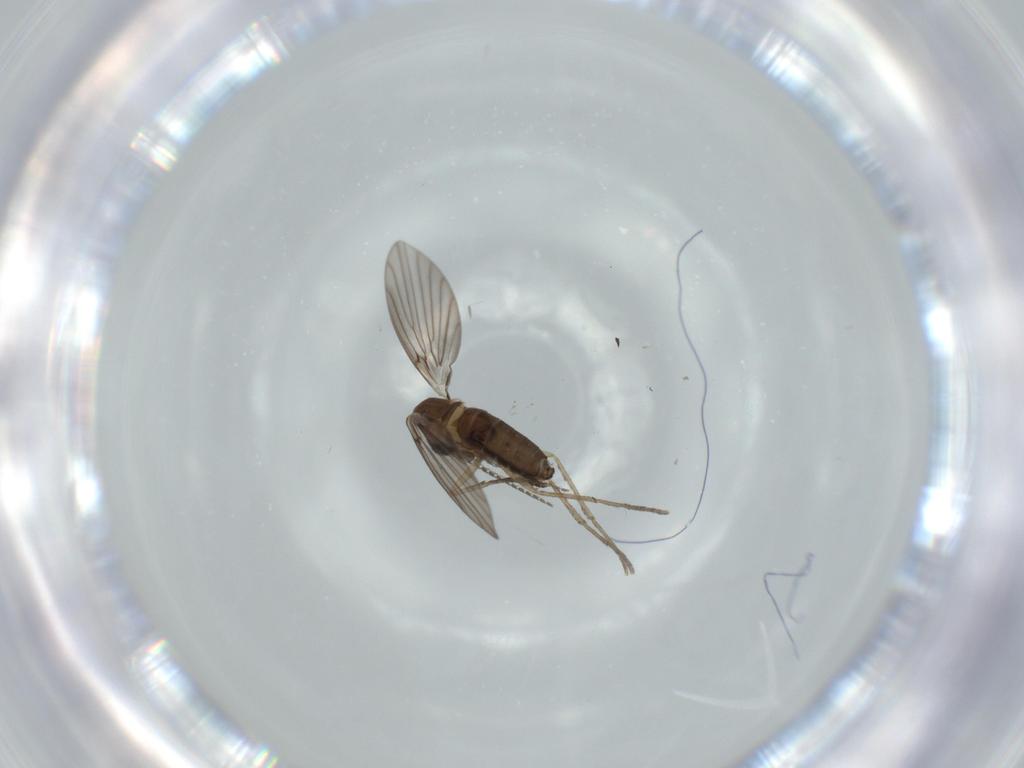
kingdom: Animalia
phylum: Arthropoda
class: Insecta
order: Diptera
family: Psychodidae
